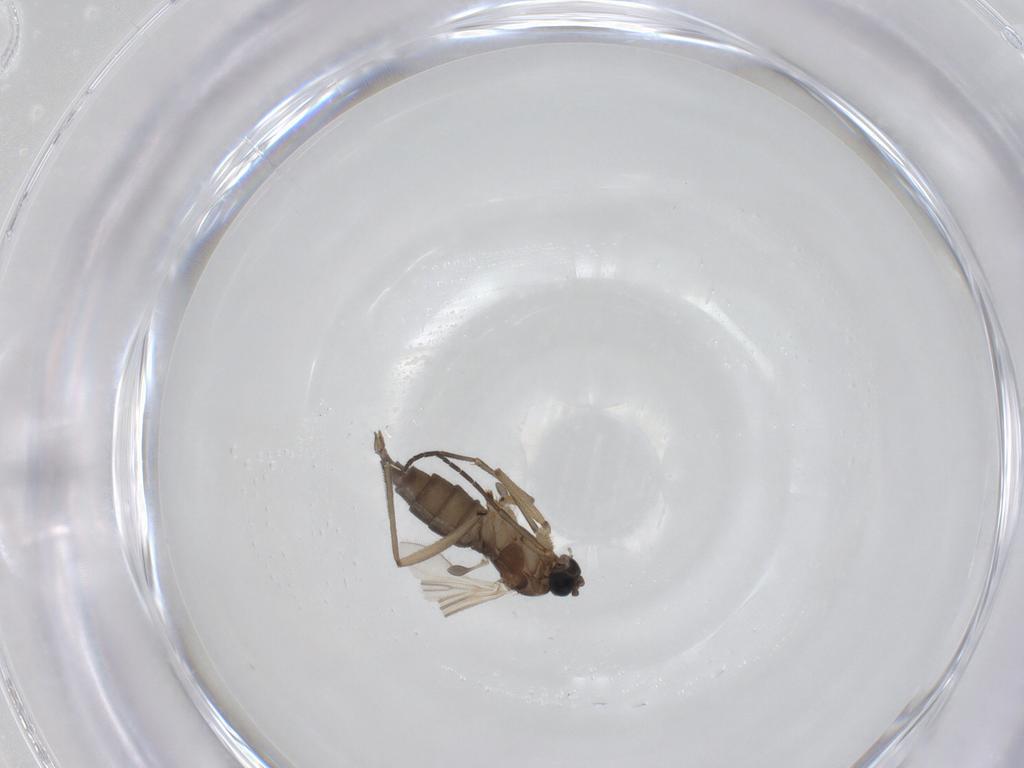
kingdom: Animalia
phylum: Arthropoda
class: Insecta
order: Diptera
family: Sciaridae
